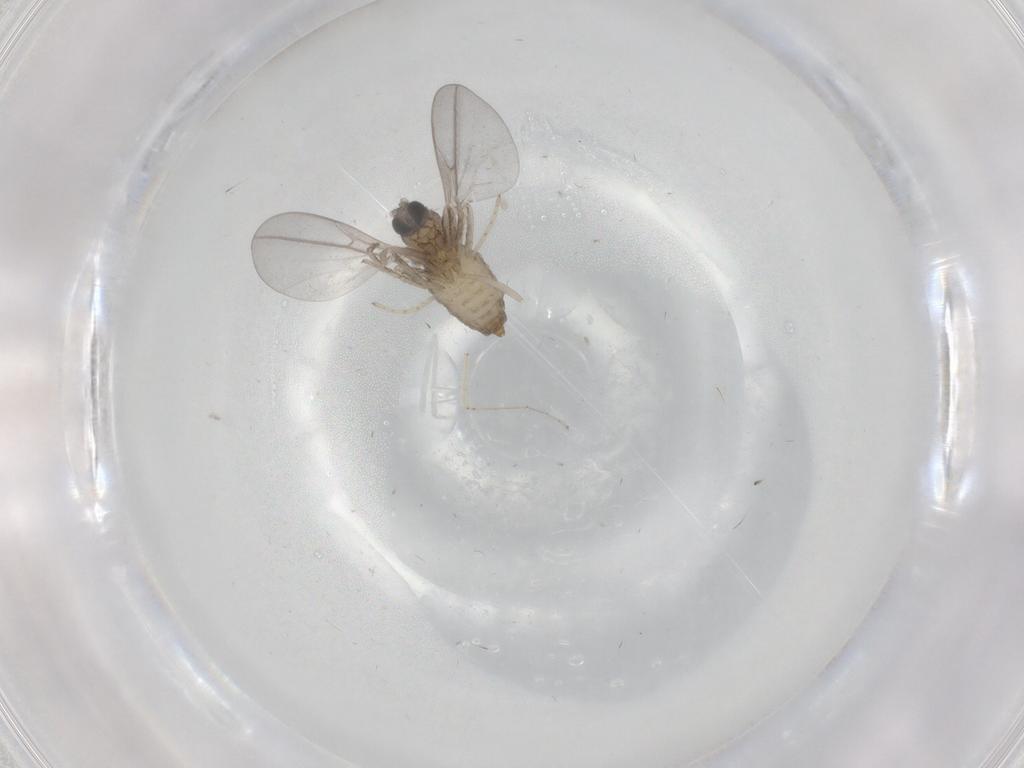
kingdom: Animalia
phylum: Arthropoda
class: Insecta
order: Diptera
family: Cecidomyiidae
